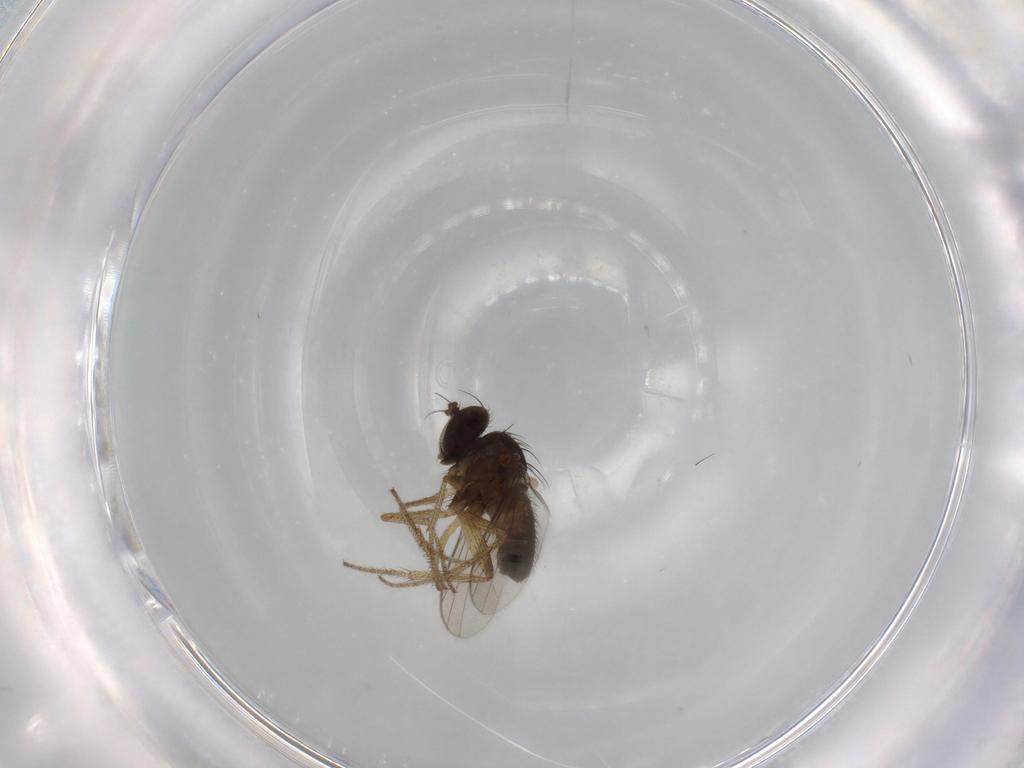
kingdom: Animalia
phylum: Arthropoda
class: Insecta
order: Diptera
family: Dolichopodidae
